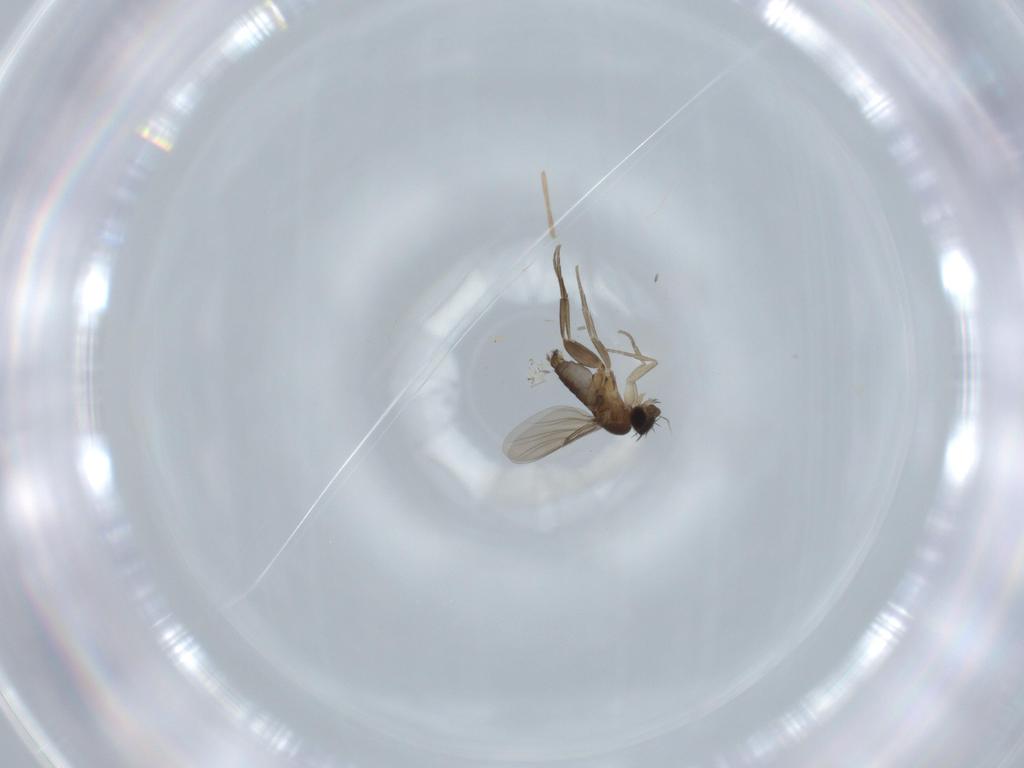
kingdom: Animalia
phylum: Arthropoda
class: Insecta
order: Diptera
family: Phoridae
